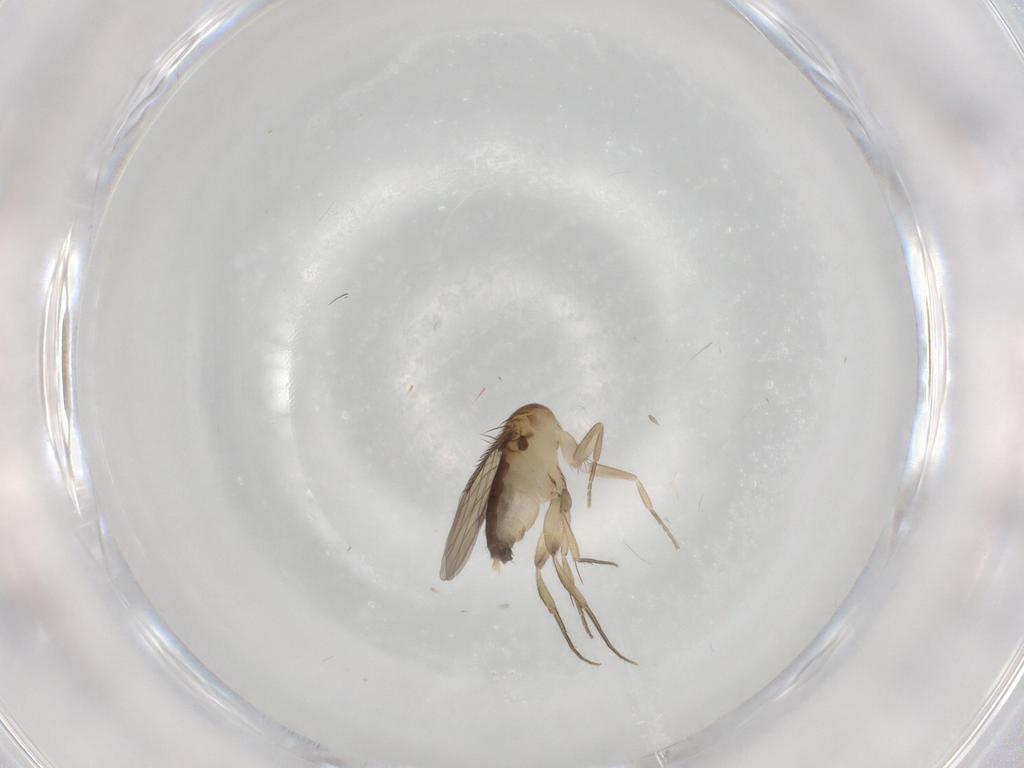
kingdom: Animalia
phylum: Arthropoda
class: Insecta
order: Diptera
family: Phoridae
